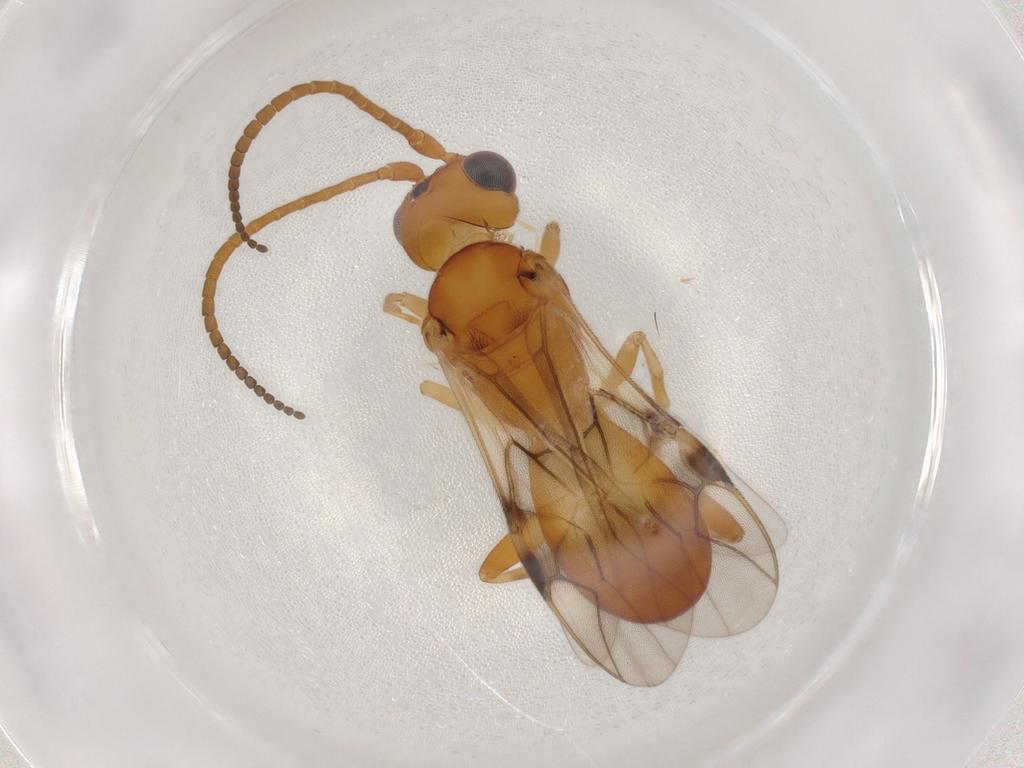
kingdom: Animalia
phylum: Arthropoda
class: Insecta
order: Hymenoptera
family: Braconidae
